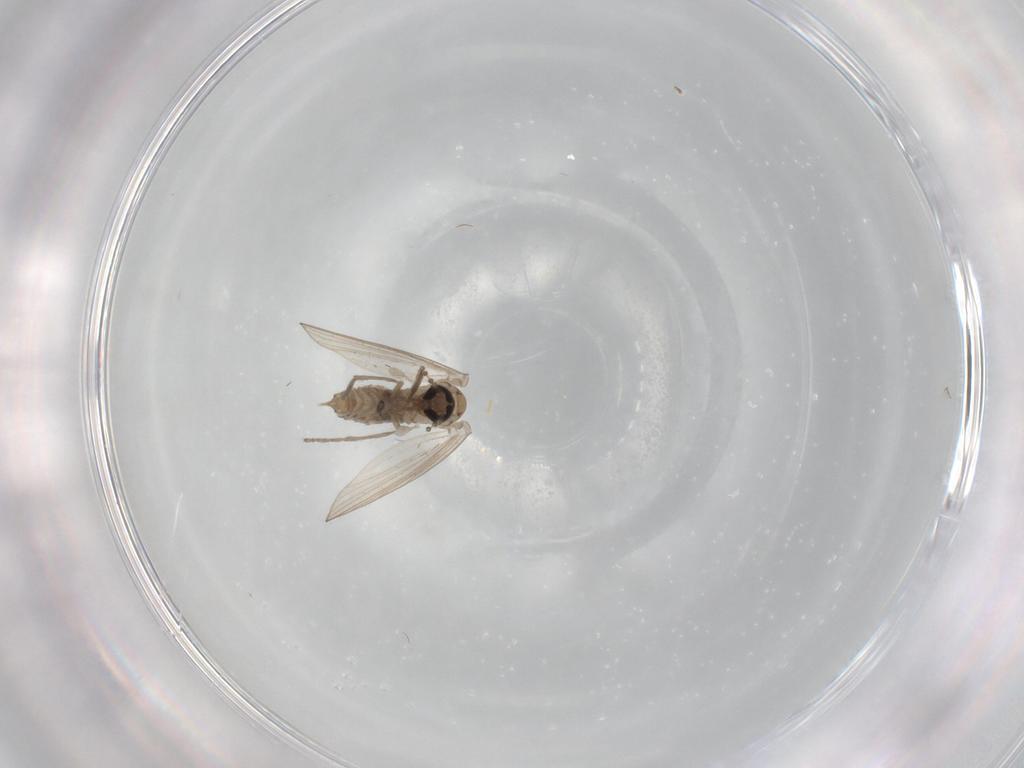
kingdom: Animalia
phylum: Arthropoda
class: Insecta
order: Diptera
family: Psychodidae
